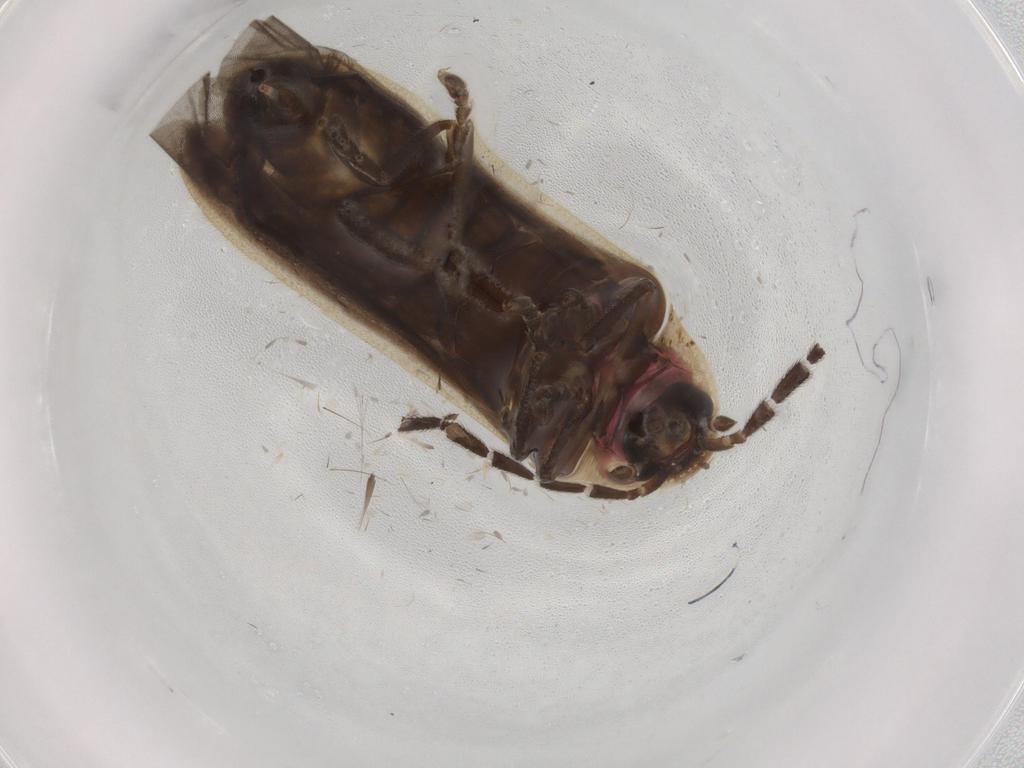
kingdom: Animalia
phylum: Arthropoda
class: Insecta
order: Coleoptera
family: Lampyridae
